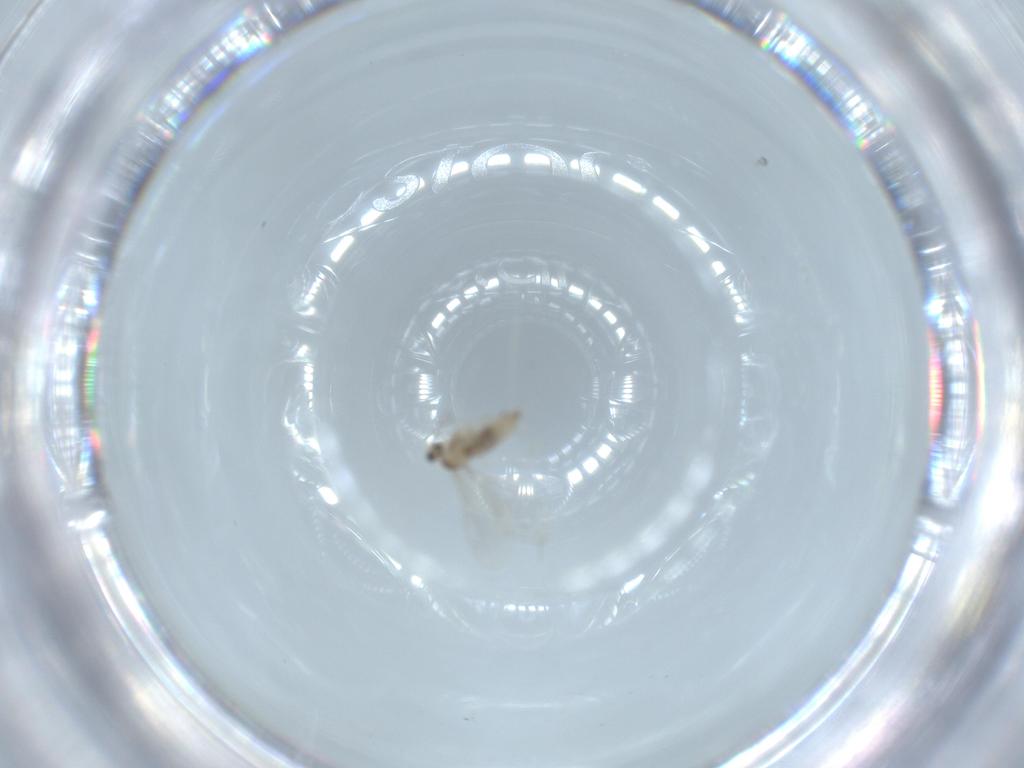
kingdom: Animalia
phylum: Arthropoda
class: Insecta
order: Diptera
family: Cecidomyiidae
